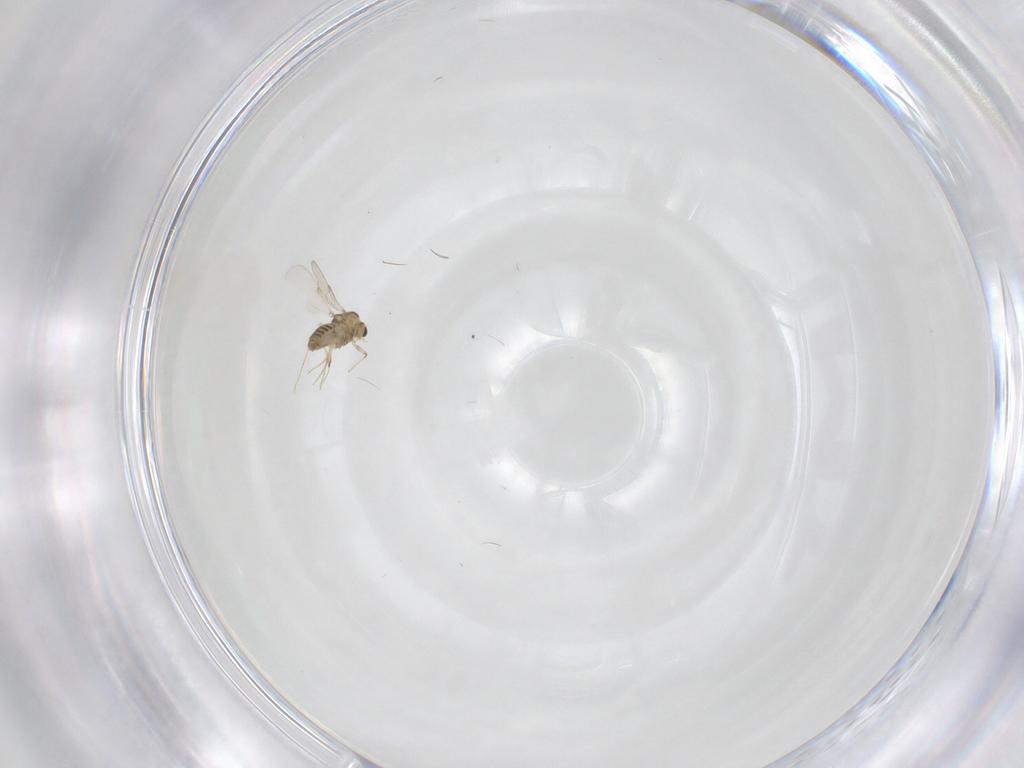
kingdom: Animalia
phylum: Arthropoda
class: Insecta
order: Diptera
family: Chironomidae
